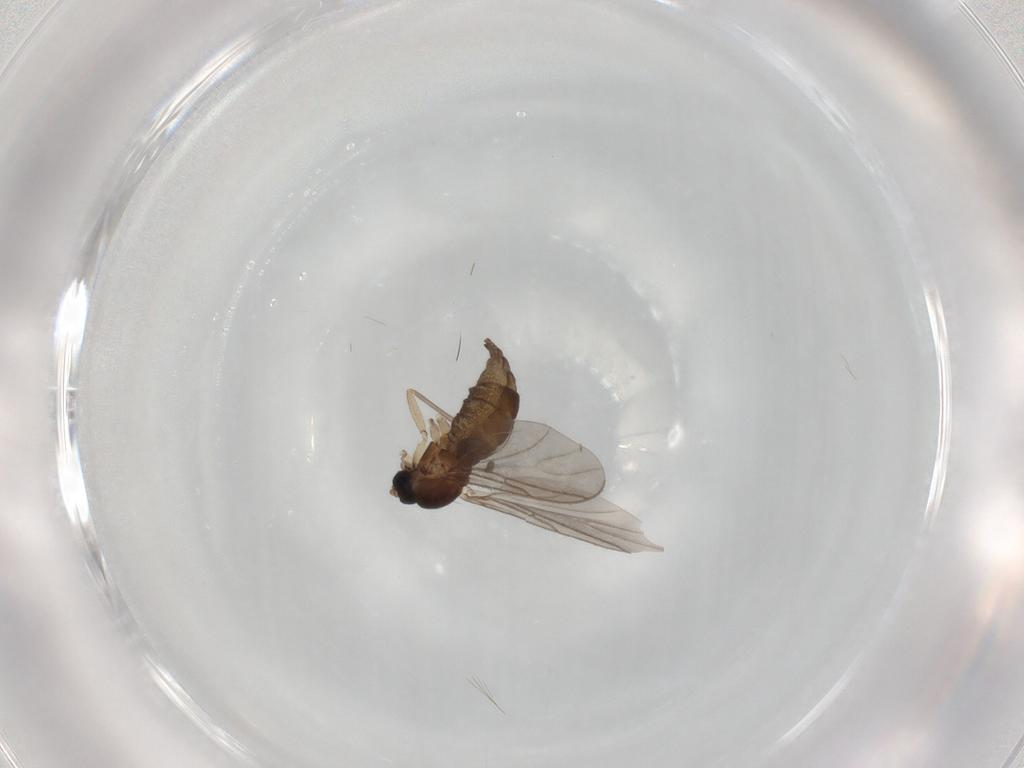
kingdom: Animalia
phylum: Arthropoda
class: Insecta
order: Diptera
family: Sciaridae
